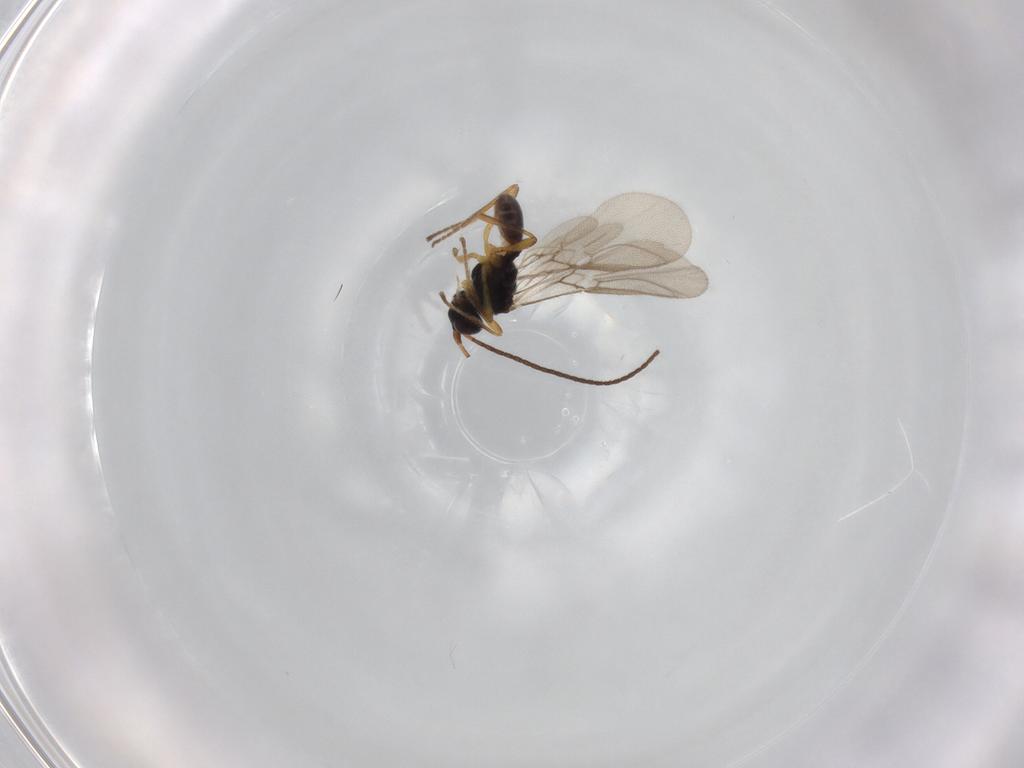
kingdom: Animalia
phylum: Arthropoda
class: Insecta
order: Hymenoptera
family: Braconidae
